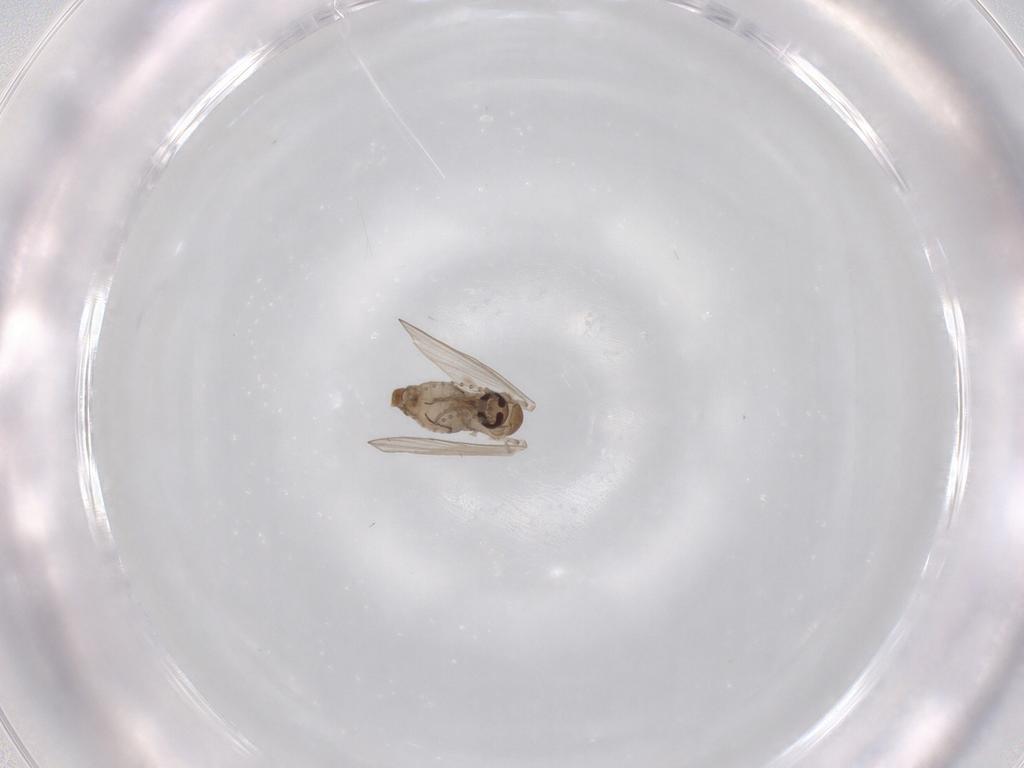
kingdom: Animalia
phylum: Arthropoda
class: Insecta
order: Diptera
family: Psychodidae
